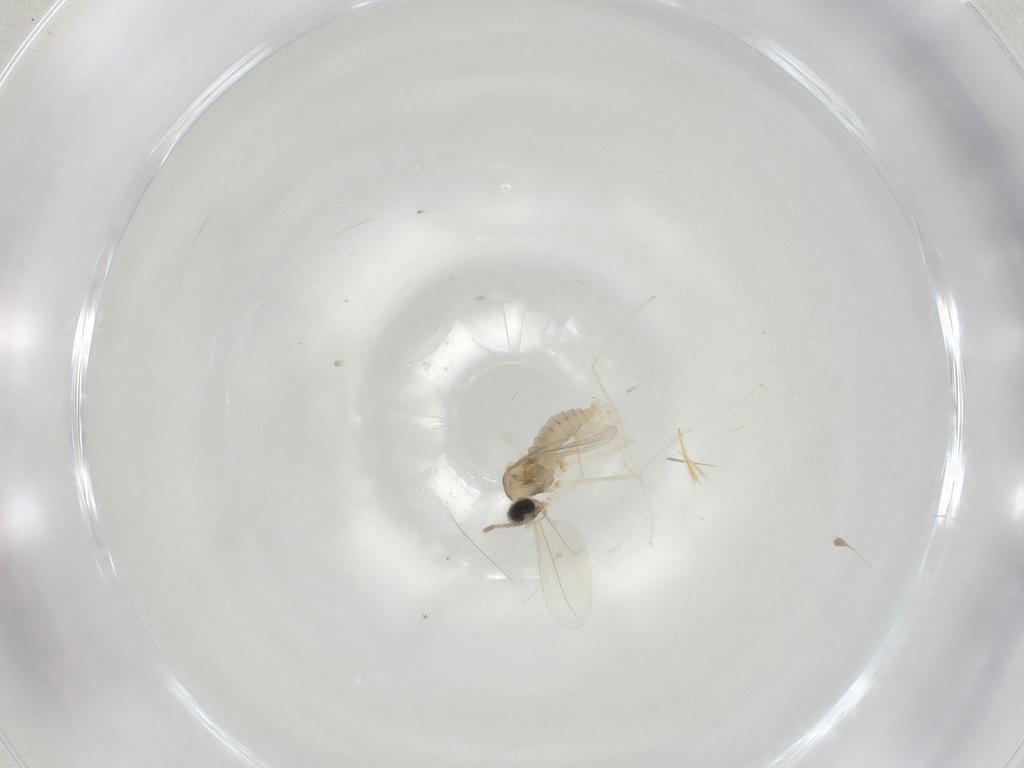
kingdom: Animalia
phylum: Arthropoda
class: Insecta
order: Diptera
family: Cecidomyiidae
